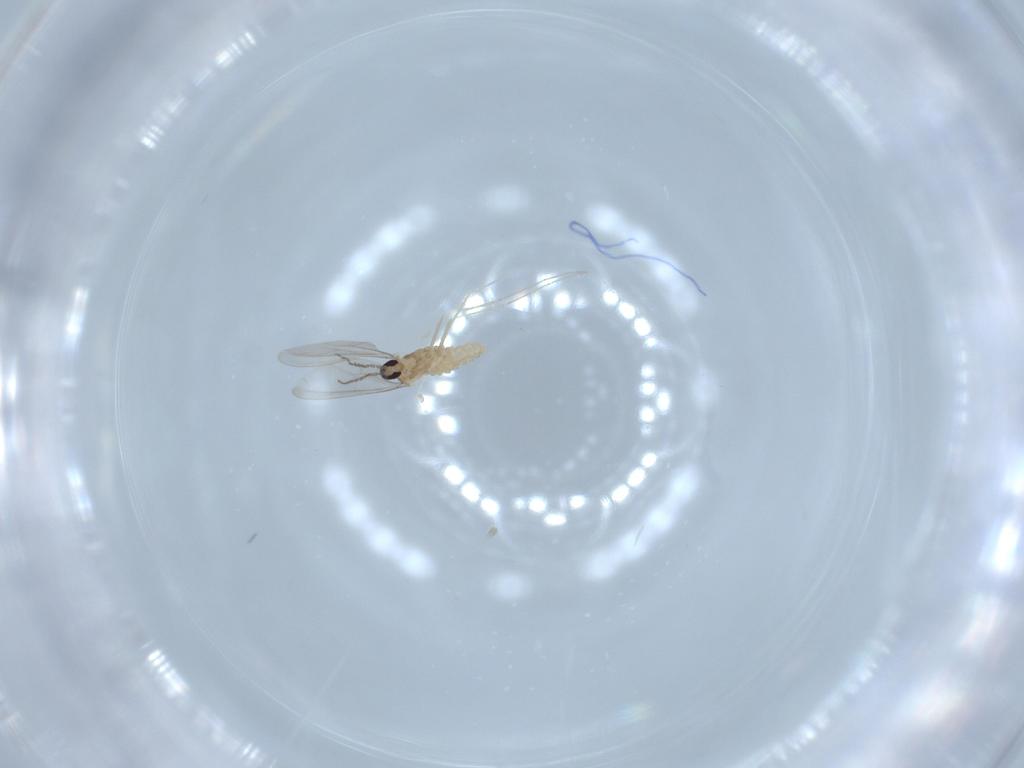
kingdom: Animalia
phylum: Arthropoda
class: Insecta
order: Diptera
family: Cecidomyiidae
